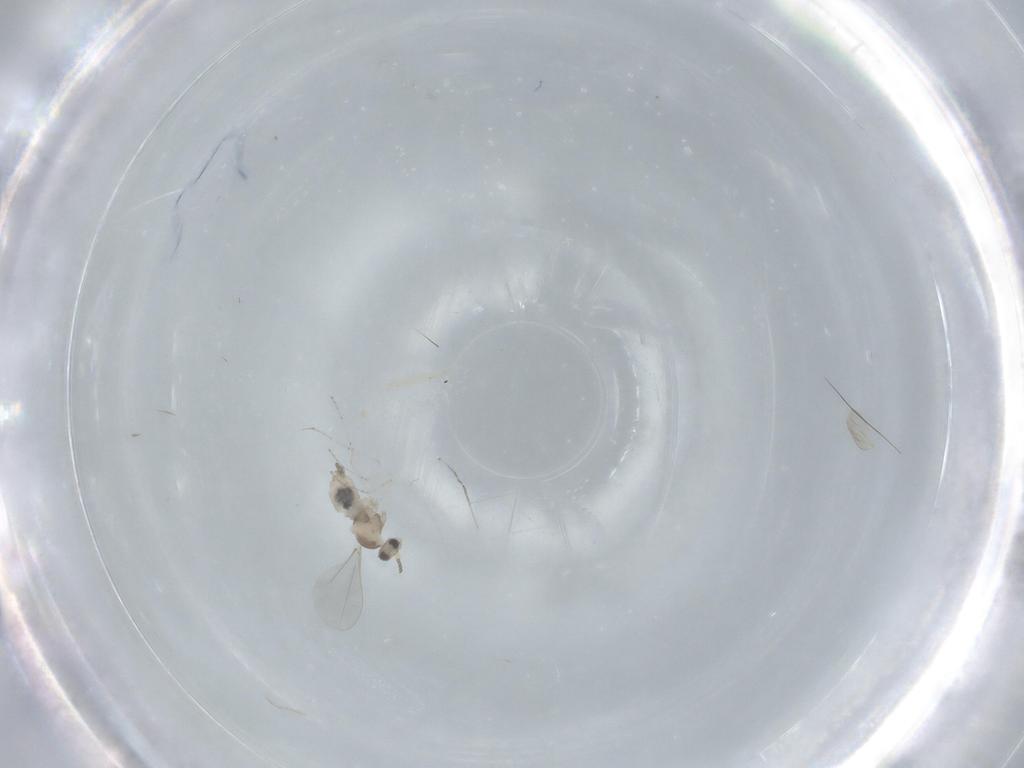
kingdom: Animalia
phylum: Arthropoda
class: Insecta
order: Diptera
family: Cecidomyiidae
